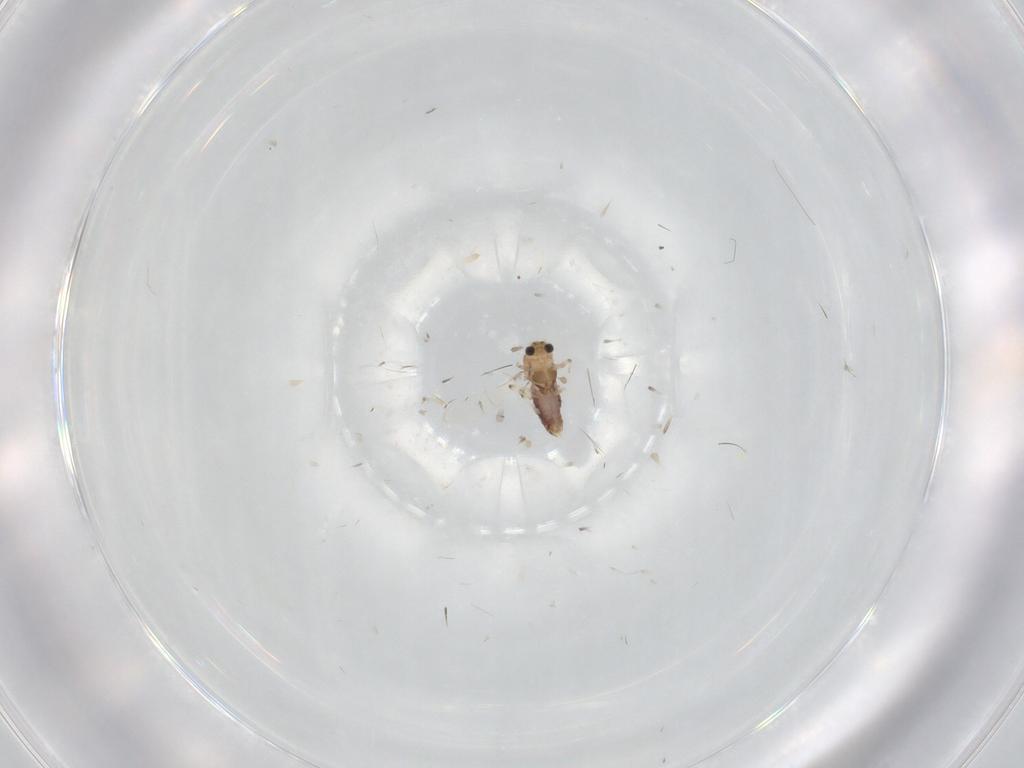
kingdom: Animalia
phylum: Arthropoda
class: Insecta
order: Diptera
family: Chironomidae
